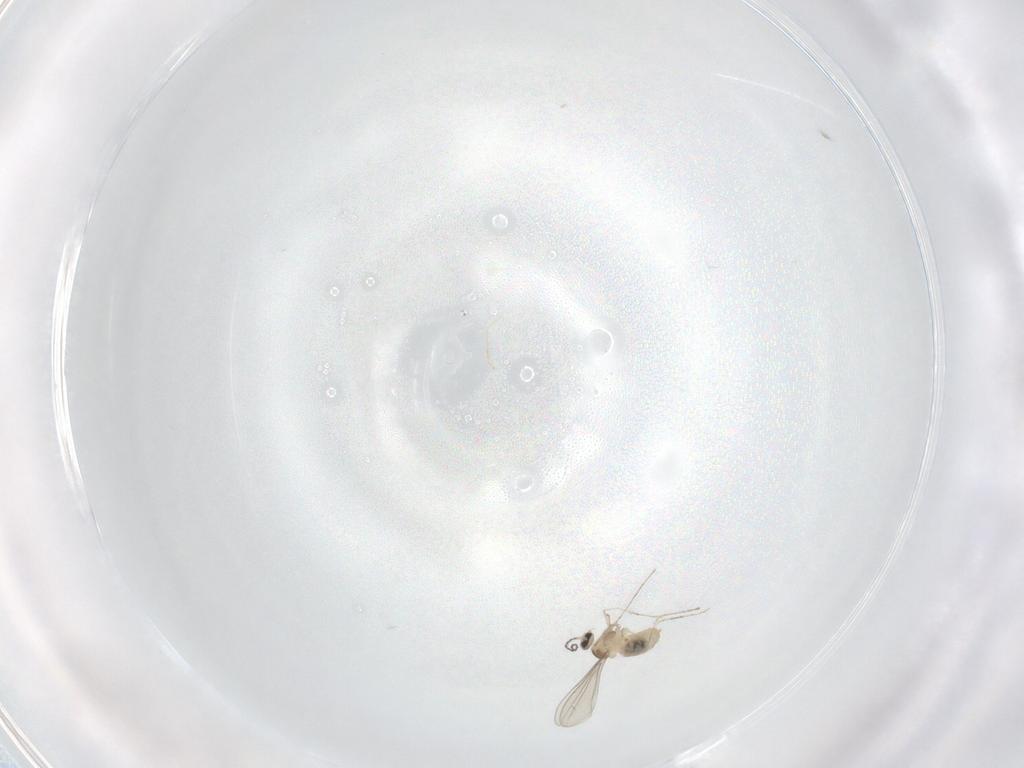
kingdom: Animalia
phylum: Arthropoda
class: Insecta
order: Diptera
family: Cecidomyiidae
